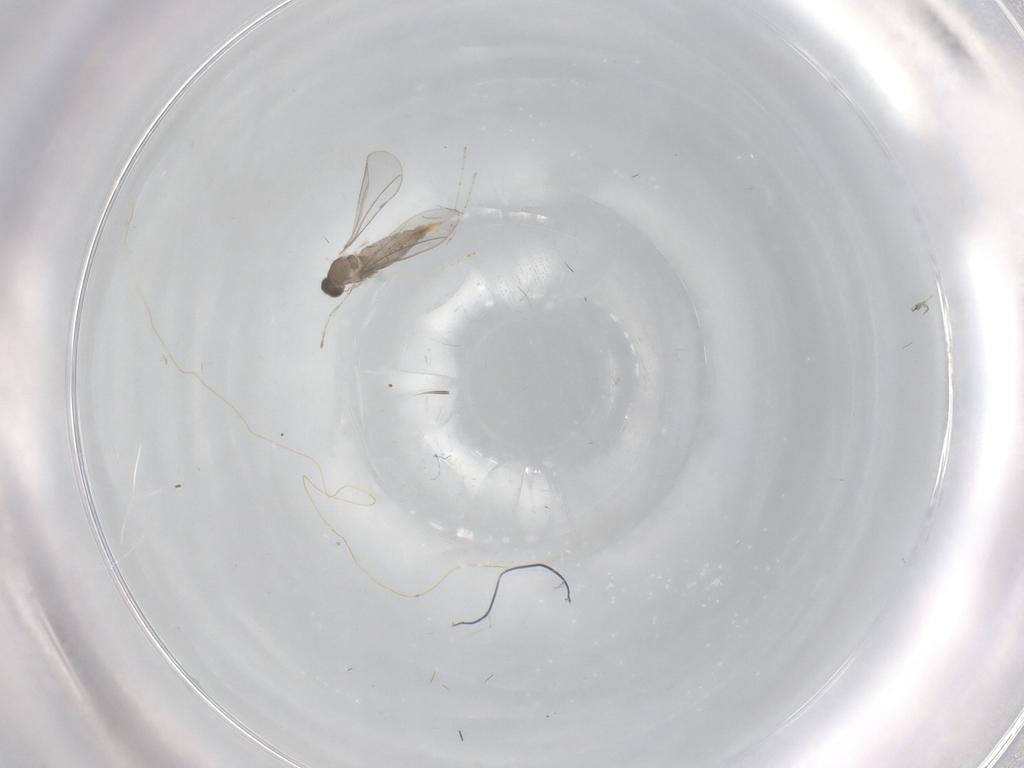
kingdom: Animalia
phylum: Arthropoda
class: Insecta
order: Diptera
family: Cecidomyiidae
